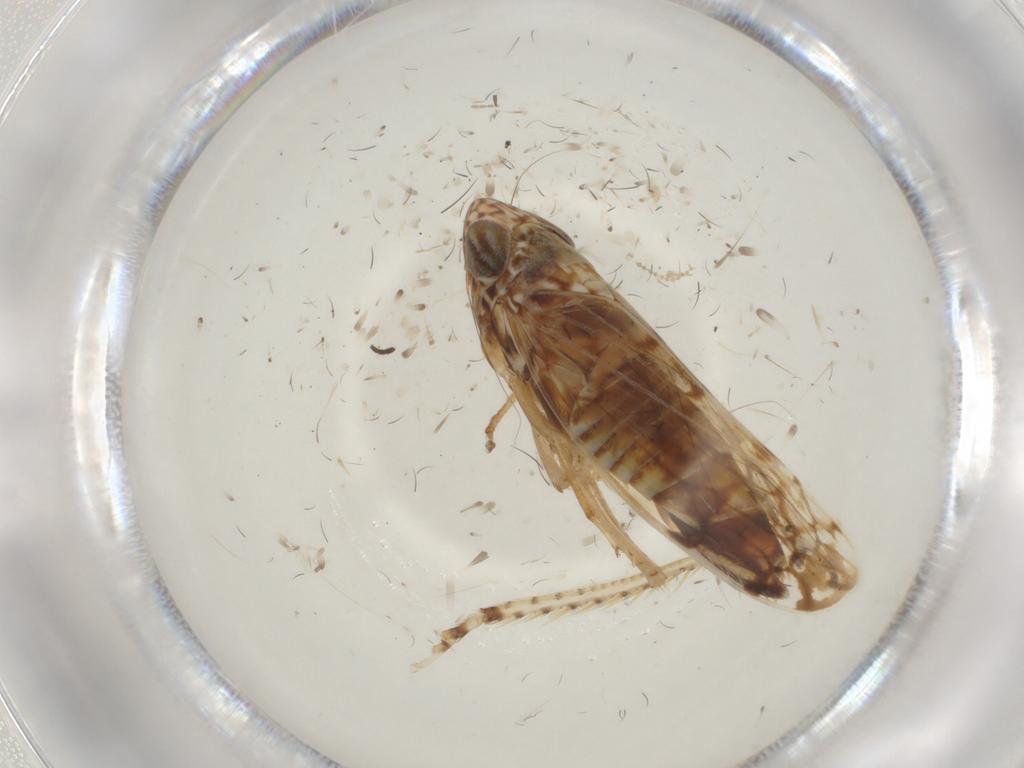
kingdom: Animalia
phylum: Arthropoda
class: Insecta
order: Hemiptera
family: Cicadellidae
